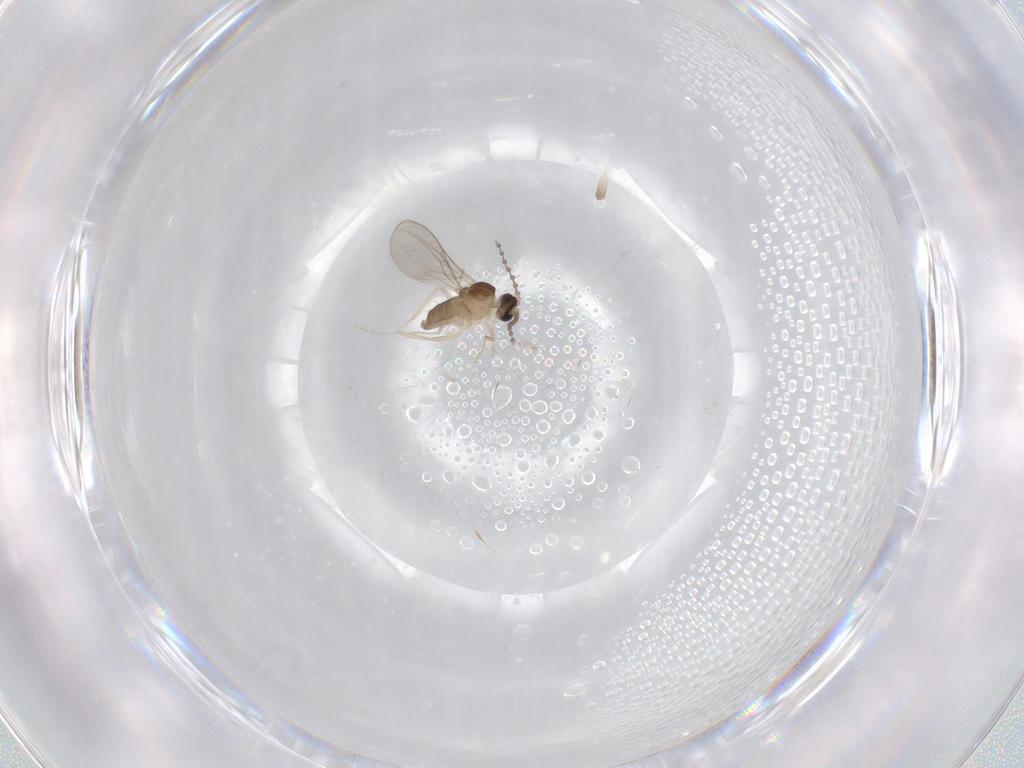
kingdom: Animalia
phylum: Arthropoda
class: Insecta
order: Diptera
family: Cecidomyiidae
